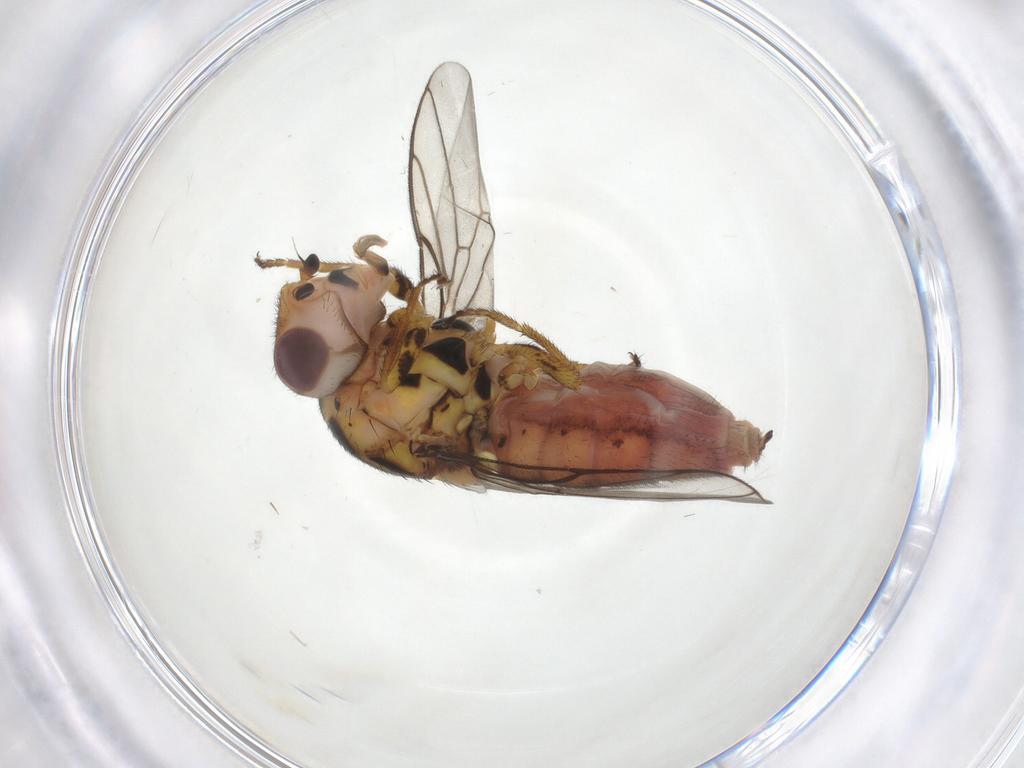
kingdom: Animalia
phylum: Arthropoda
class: Insecta
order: Diptera
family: Chloropidae
